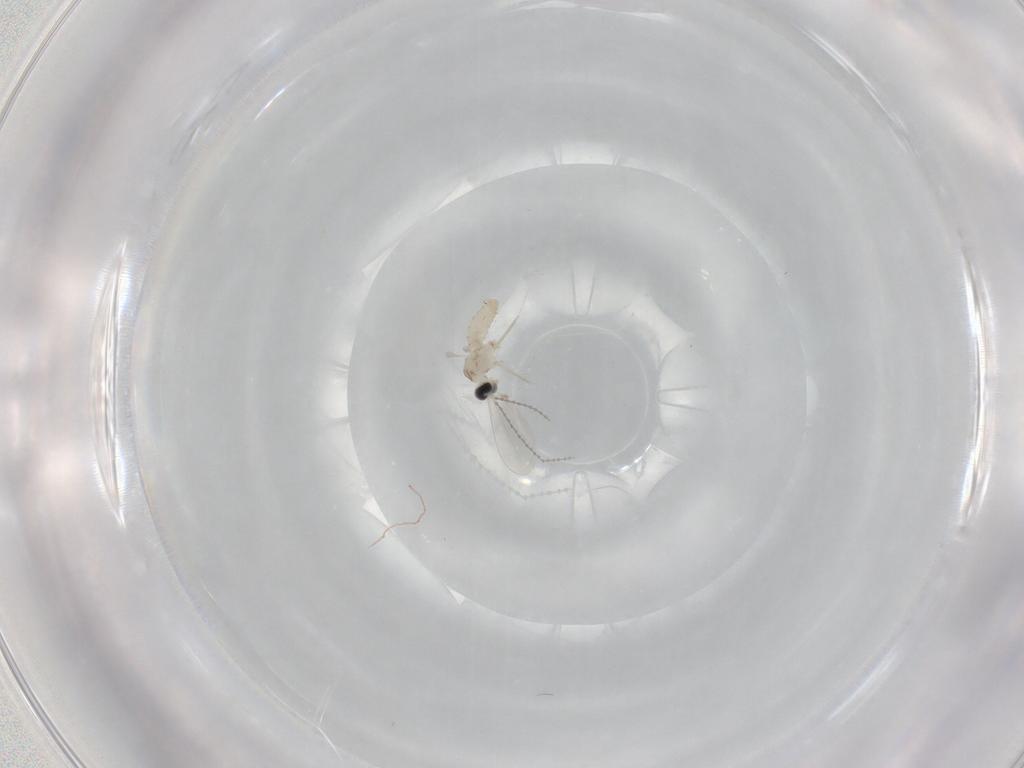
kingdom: Animalia
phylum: Arthropoda
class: Insecta
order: Diptera
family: Cecidomyiidae
